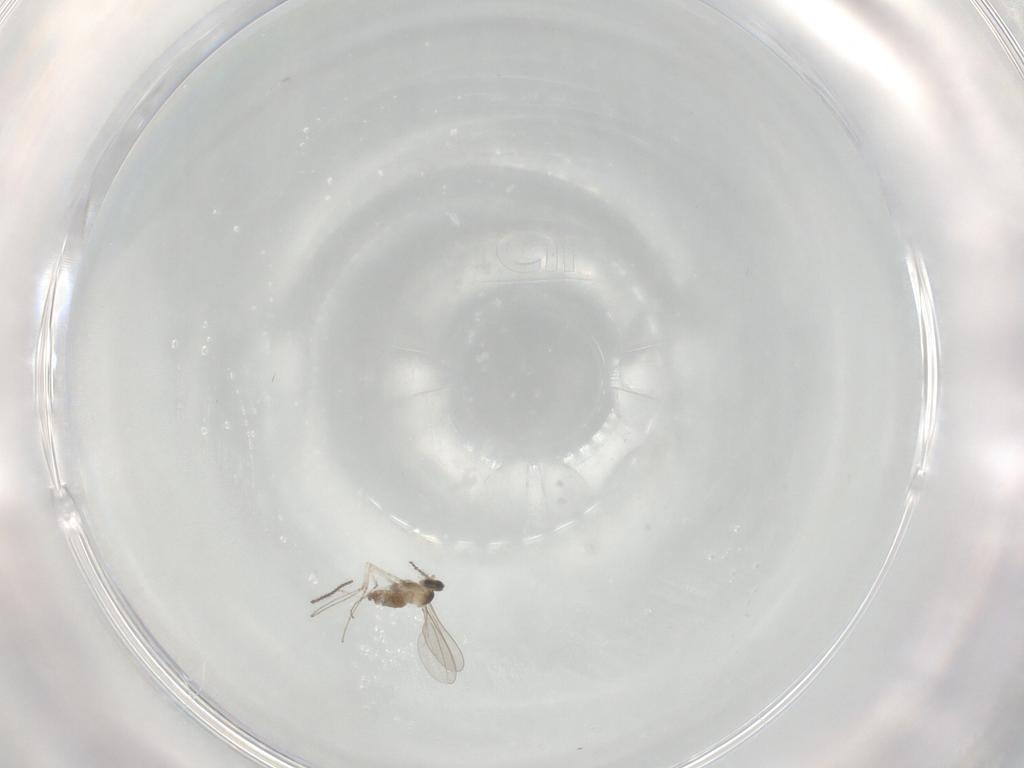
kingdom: Animalia
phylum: Arthropoda
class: Insecta
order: Diptera
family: Cecidomyiidae
